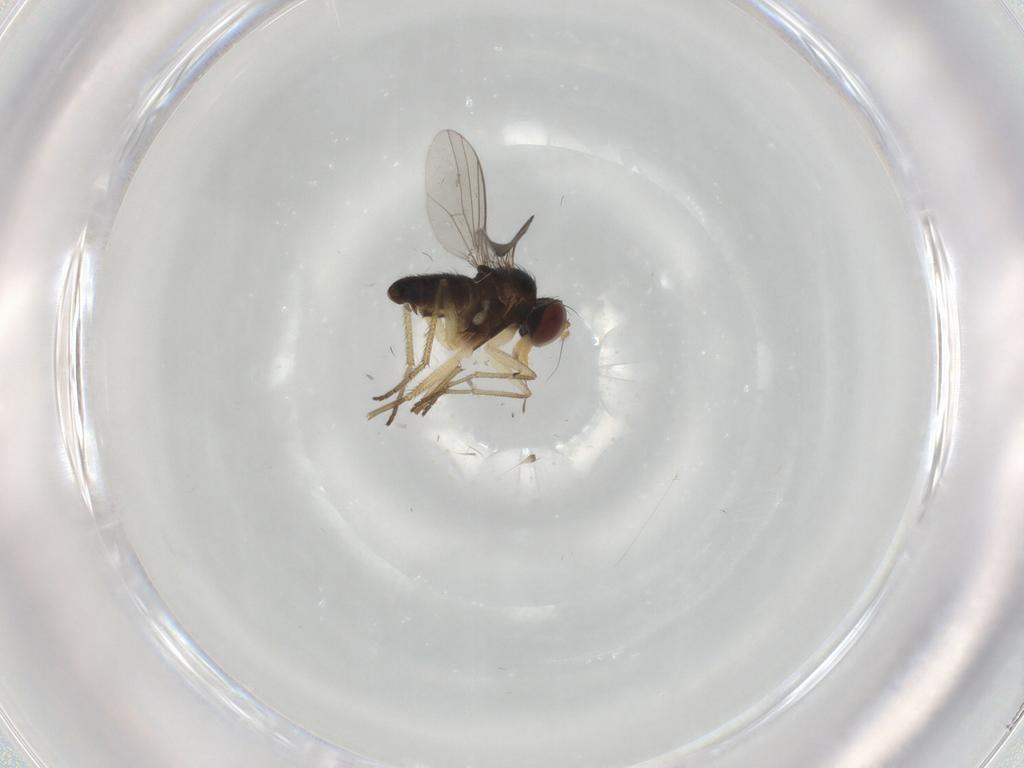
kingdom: Animalia
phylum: Arthropoda
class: Insecta
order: Diptera
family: Dolichopodidae
